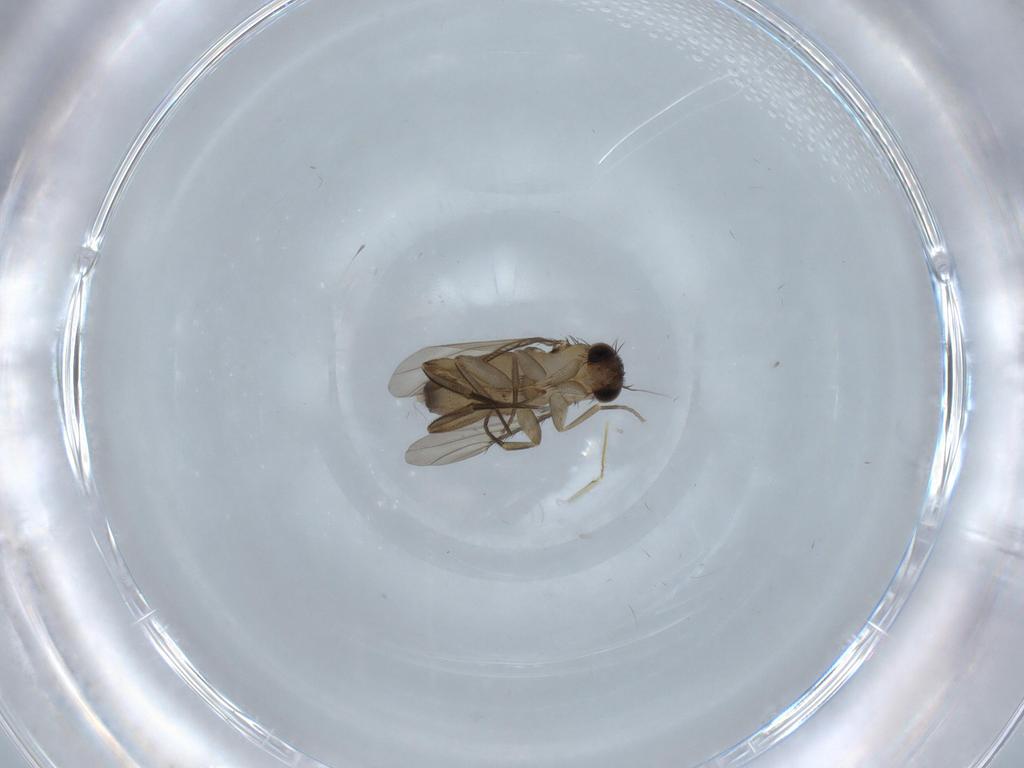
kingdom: Animalia
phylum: Arthropoda
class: Insecta
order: Diptera
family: Phoridae
